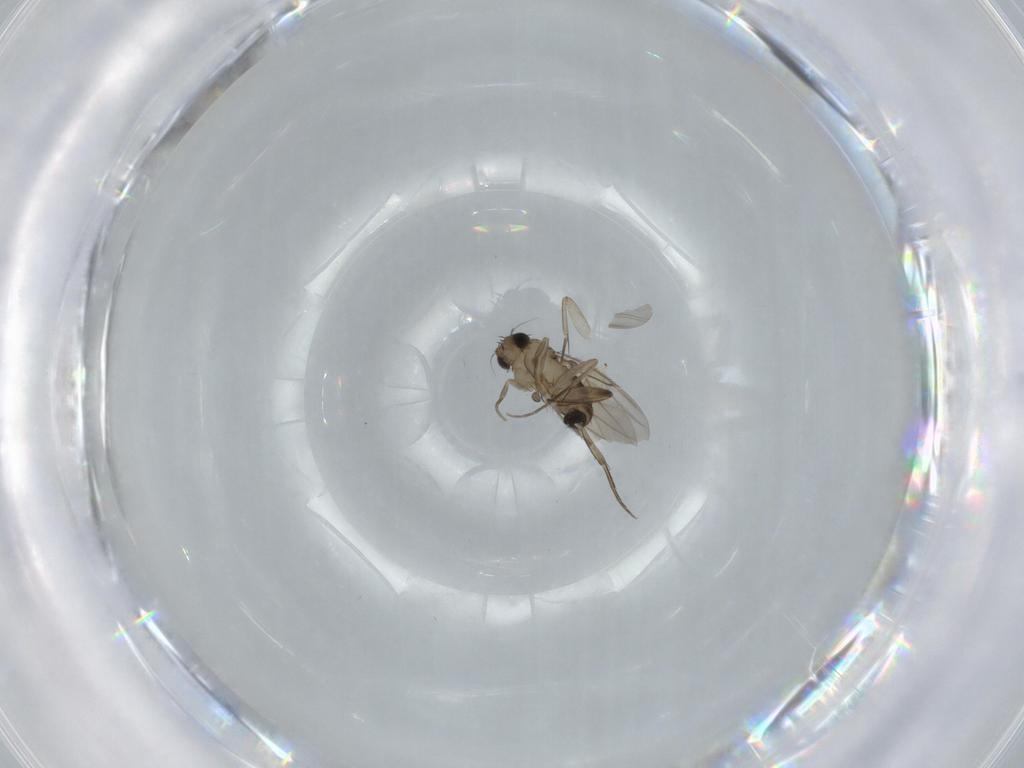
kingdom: Animalia
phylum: Arthropoda
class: Insecta
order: Diptera
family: Phoridae
